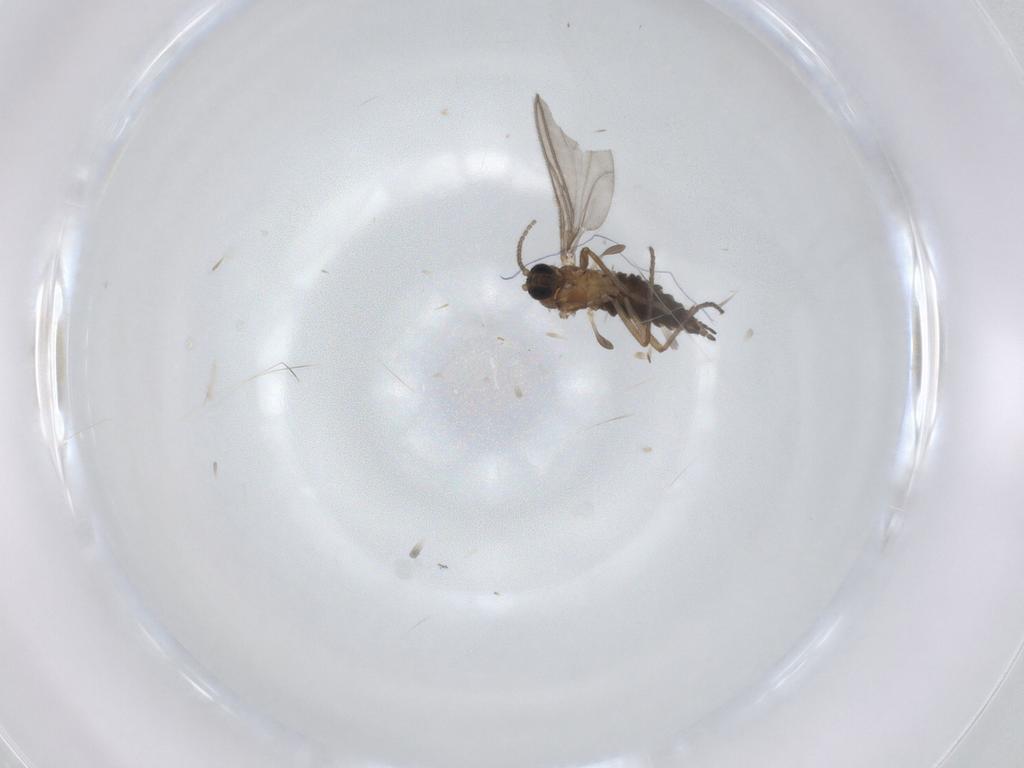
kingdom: Animalia
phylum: Arthropoda
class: Insecta
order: Diptera
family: Sciaridae
